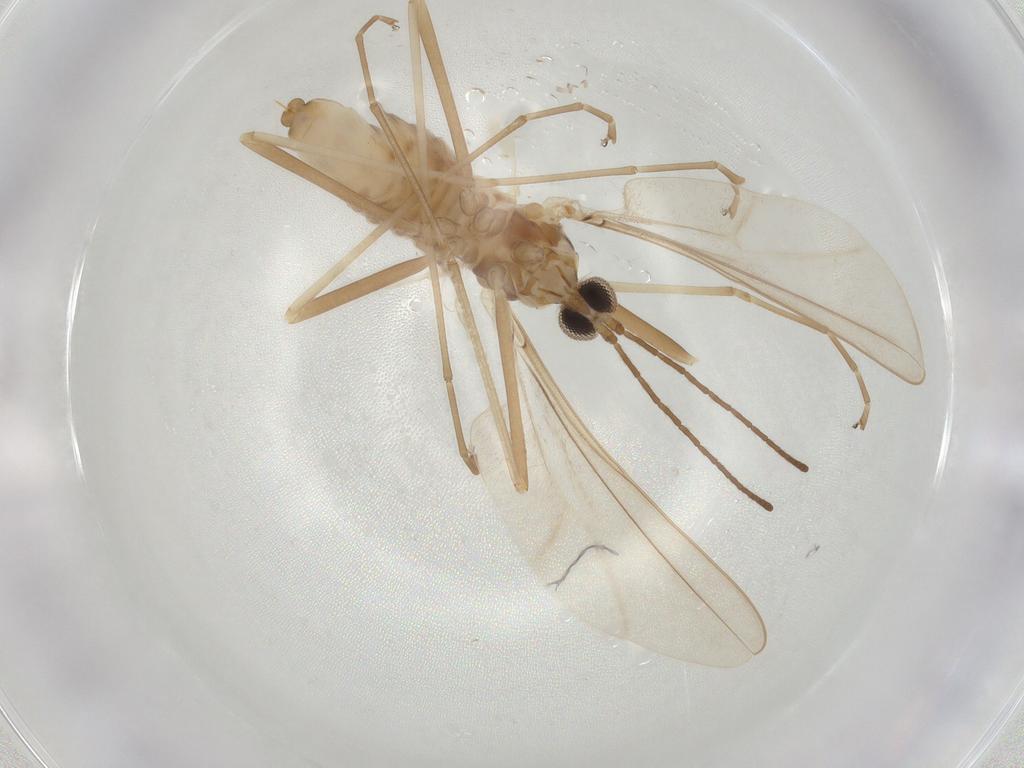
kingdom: Animalia
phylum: Arthropoda
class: Insecta
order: Diptera
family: Cecidomyiidae
